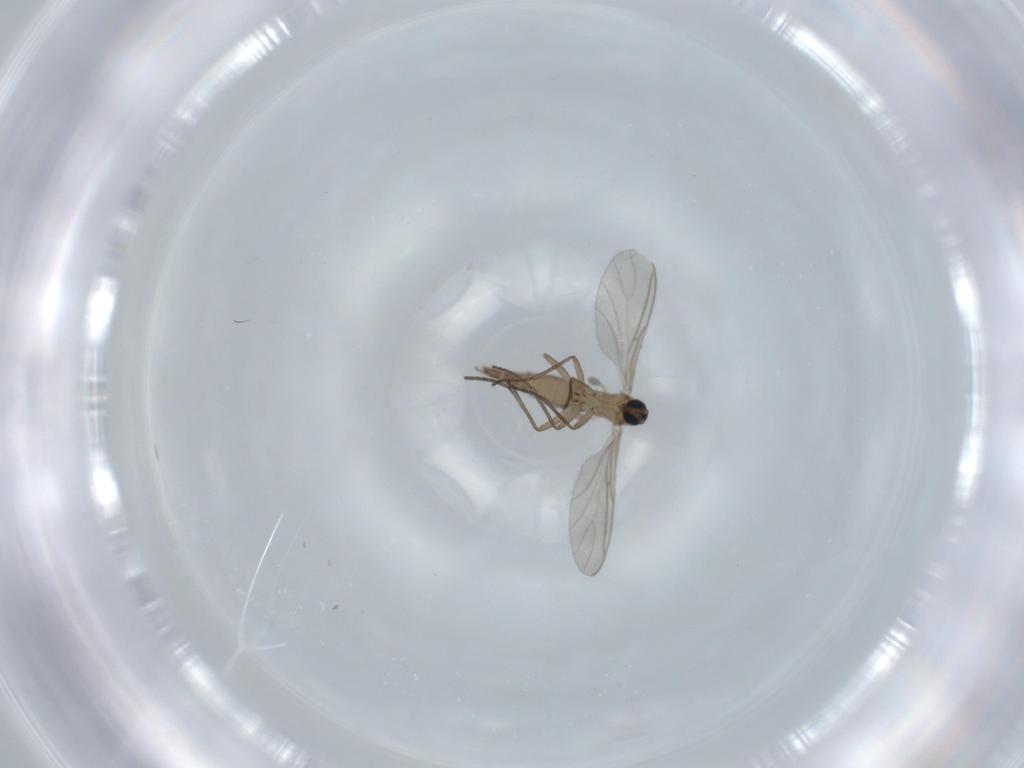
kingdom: Animalia
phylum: Arthropoda
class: Insecta
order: Diptera
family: Sciaridae
